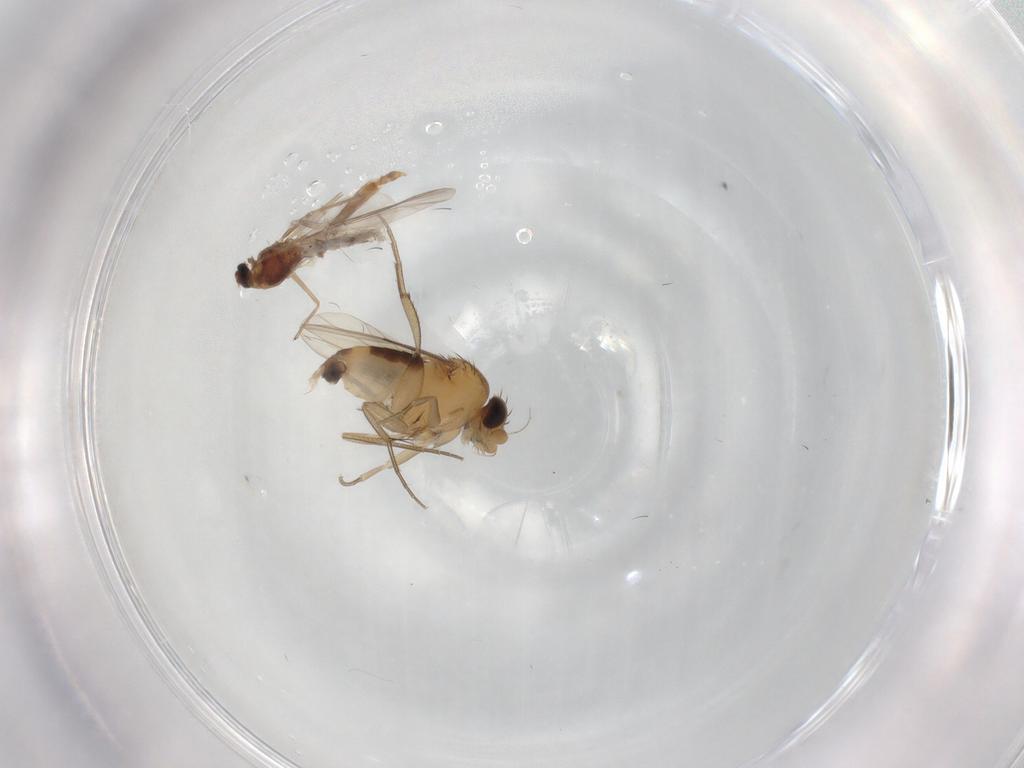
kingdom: Animalia
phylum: Arthropoda
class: Insecta
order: Diptera
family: Phoridae
